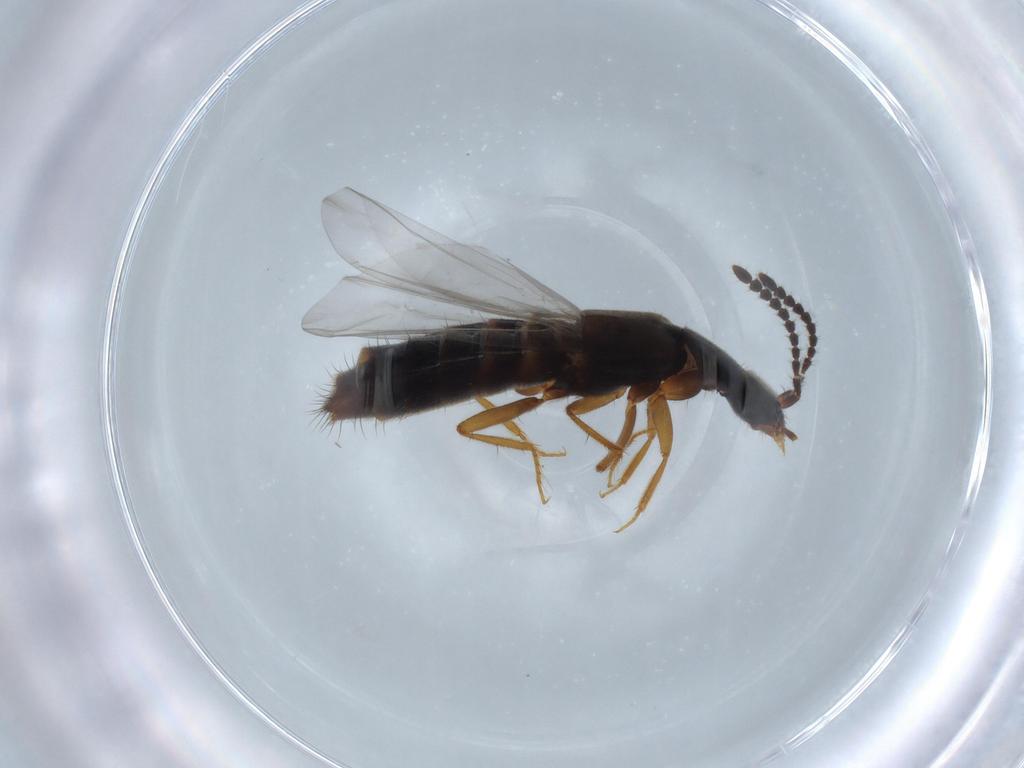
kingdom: Animalia
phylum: Arthropoda
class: Insecta
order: Coleoptera
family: Staphylinidae
